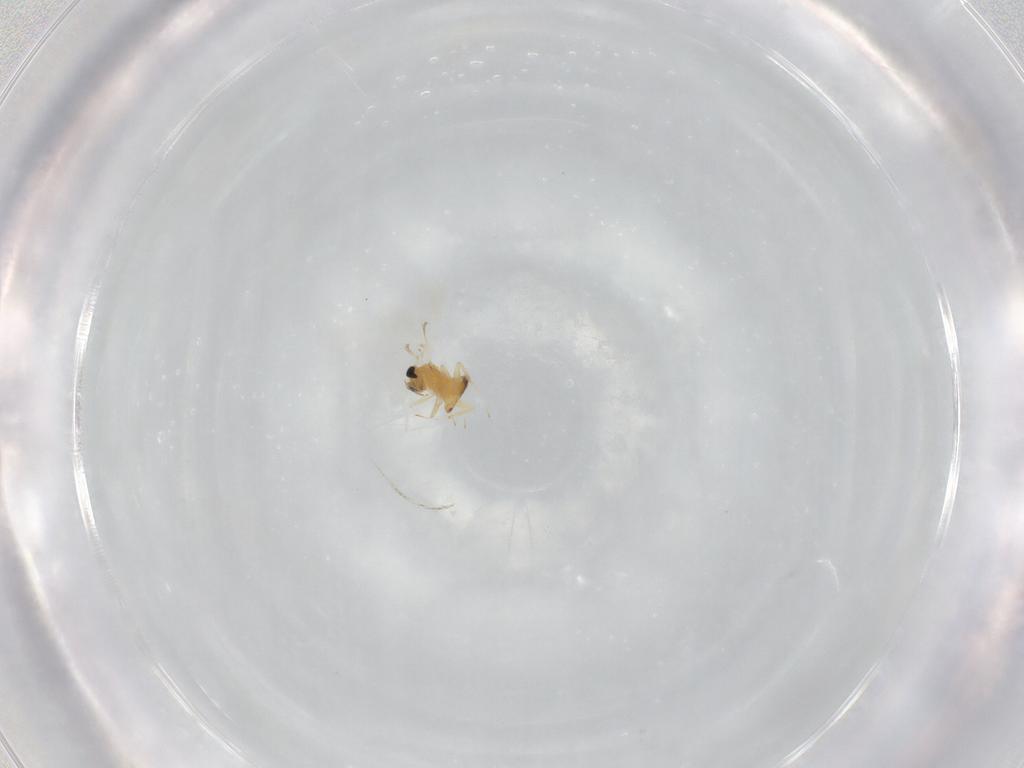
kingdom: Animalia
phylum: Arthropoda
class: Insecta
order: Hymenoptera
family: Trichogrammatidae
